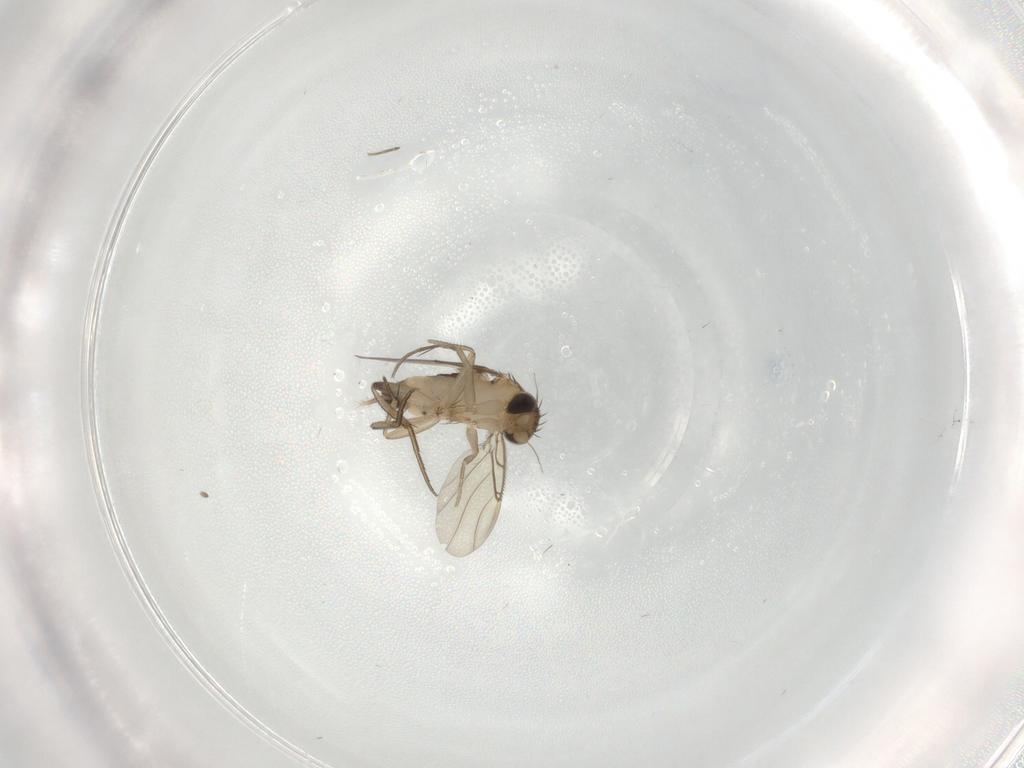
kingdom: Animalia
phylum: Arthropoda
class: Insecta
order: Diptera
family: Phoridae
